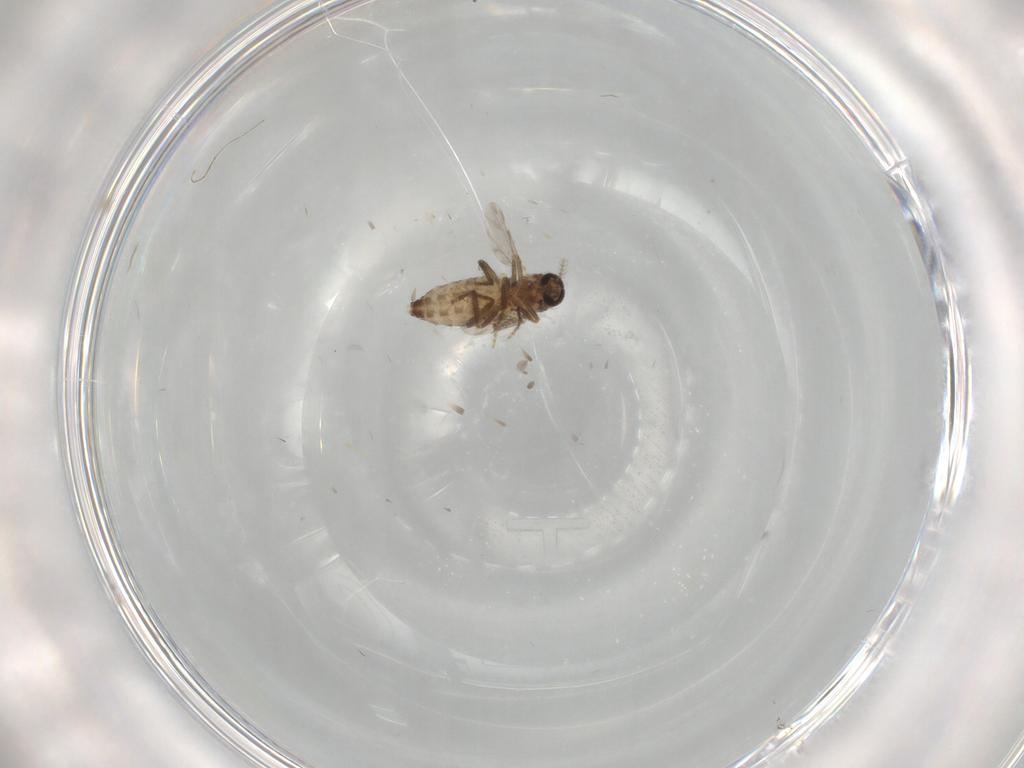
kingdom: Animalia
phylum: Arthropoda
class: Insecta
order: Diptera
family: Ceratopogonidae
